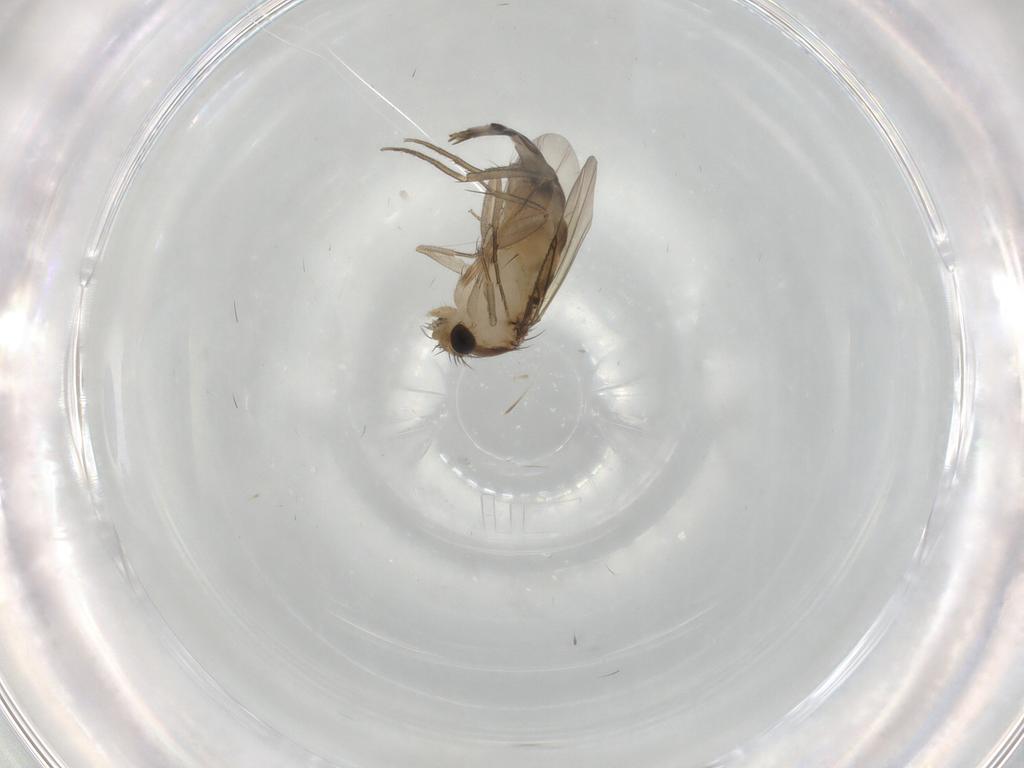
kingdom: Animalia
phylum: Arthropoda
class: Insecta
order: Diptera
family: Phoridae
